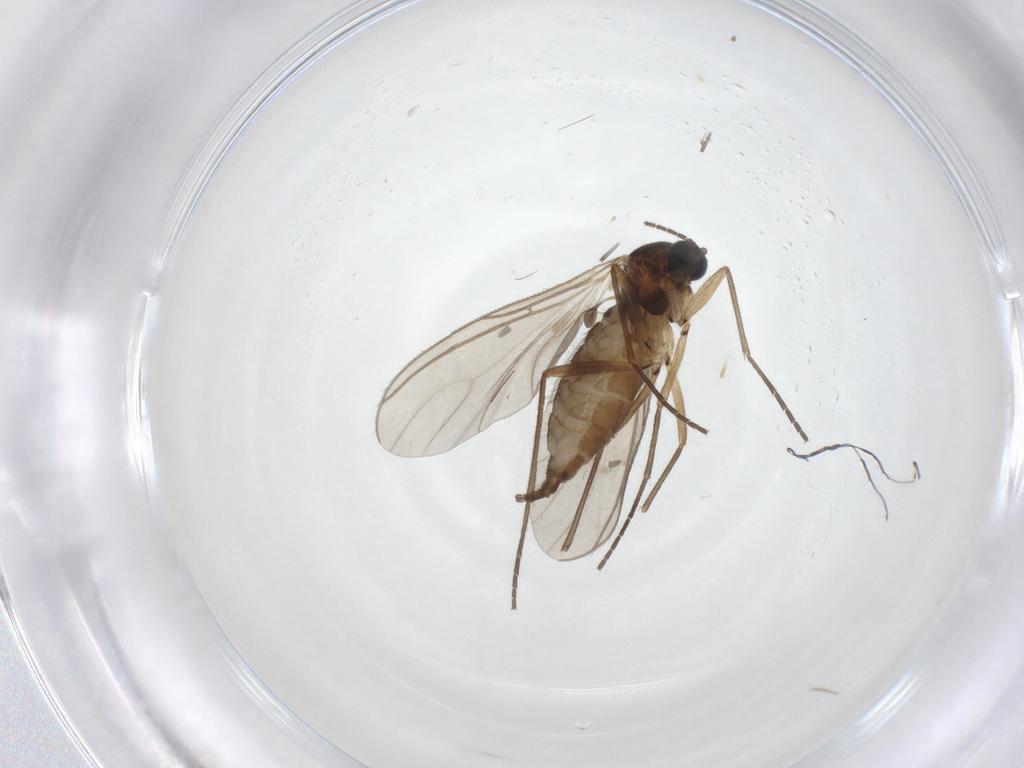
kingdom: Animalia
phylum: Arthropoda
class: Insecta
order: Diptera
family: Sciaridae
